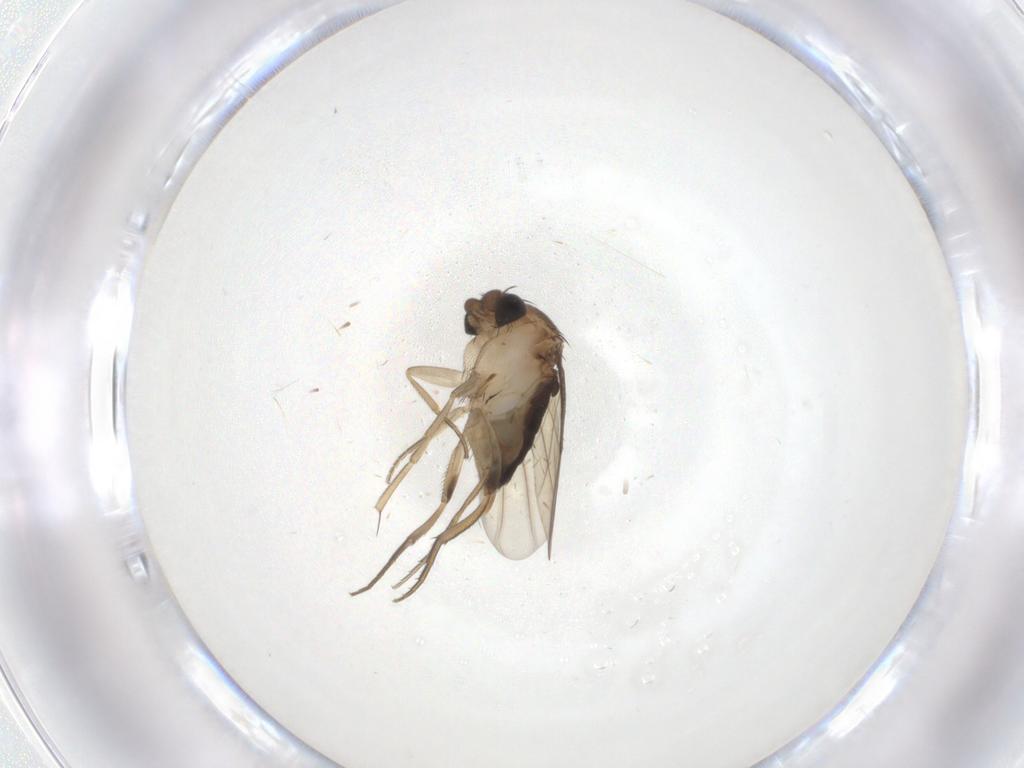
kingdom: Animalia
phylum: Arthropoda
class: Insecta
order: Diptera
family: Phoridae
